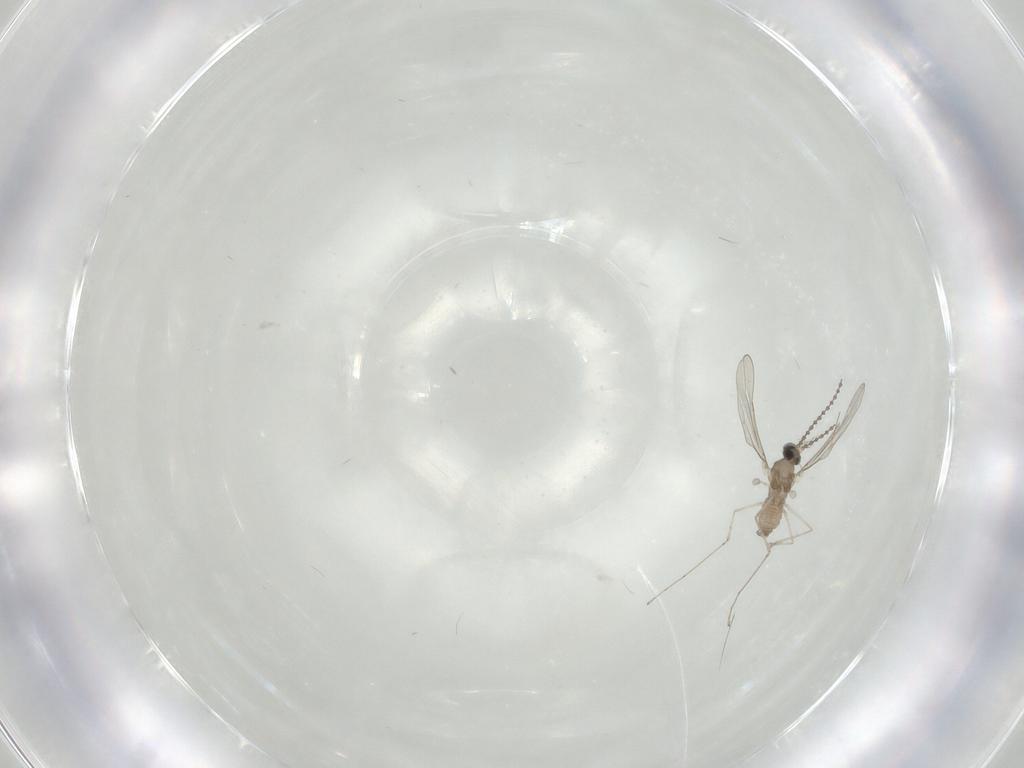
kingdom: Animalia
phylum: Arthropoda
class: Insecta
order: Diptera
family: Cecidomyiidae
